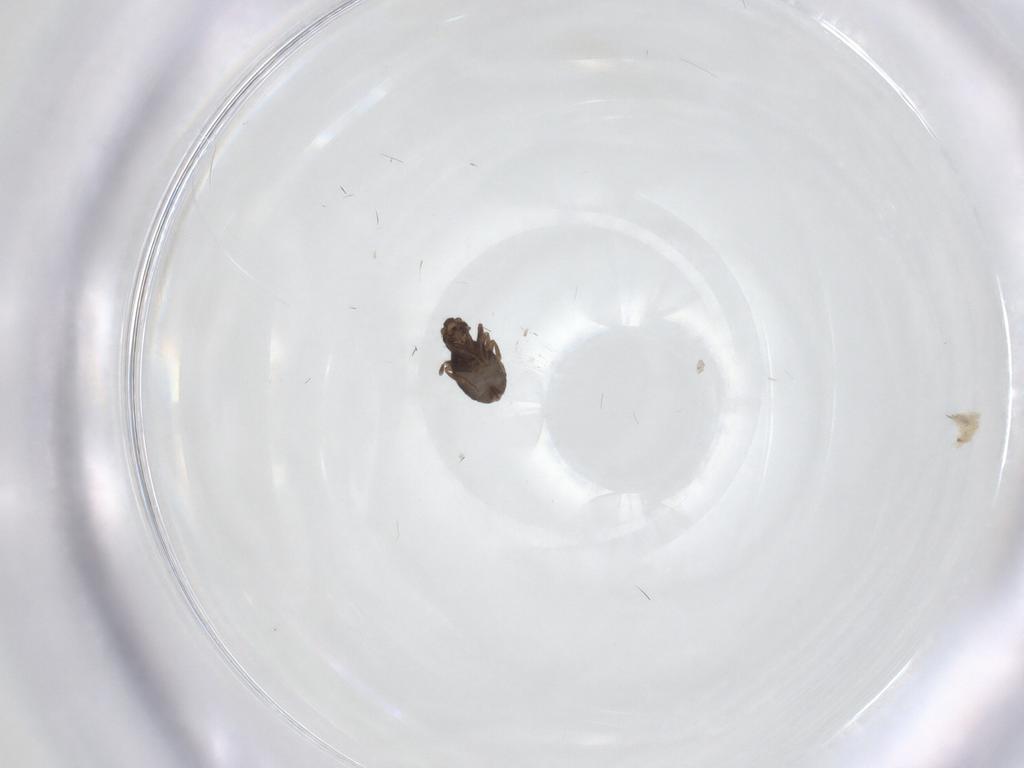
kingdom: Animalia
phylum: Arthropoda
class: Insecta
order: Diptera
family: Phoridae
